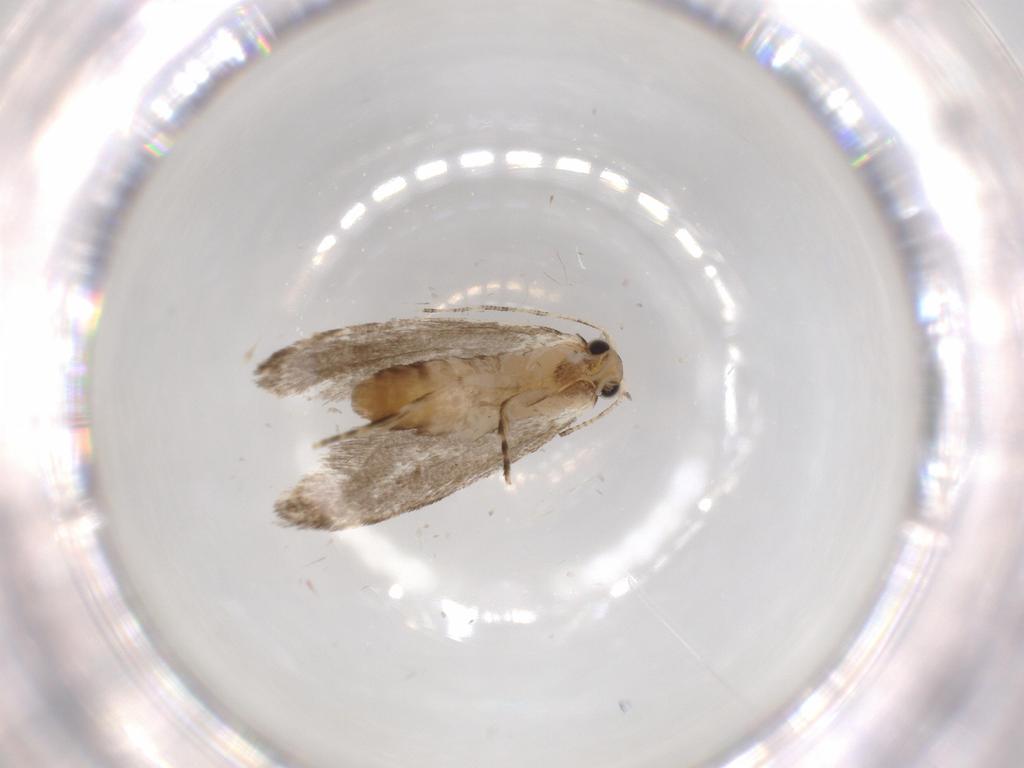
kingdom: Animalia
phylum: Arthropoda
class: Insecta
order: Lepidoptera
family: Tineidae
